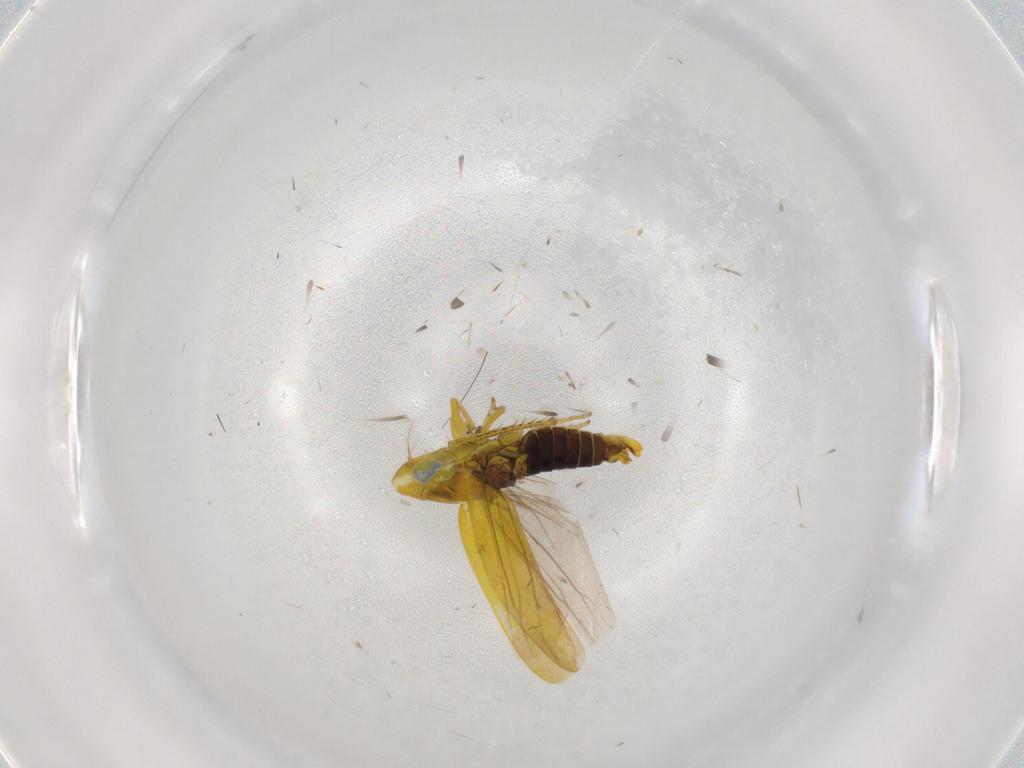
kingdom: Animalia
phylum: Arthropoda
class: Insecta
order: Hemiptera
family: Cicadellidae
